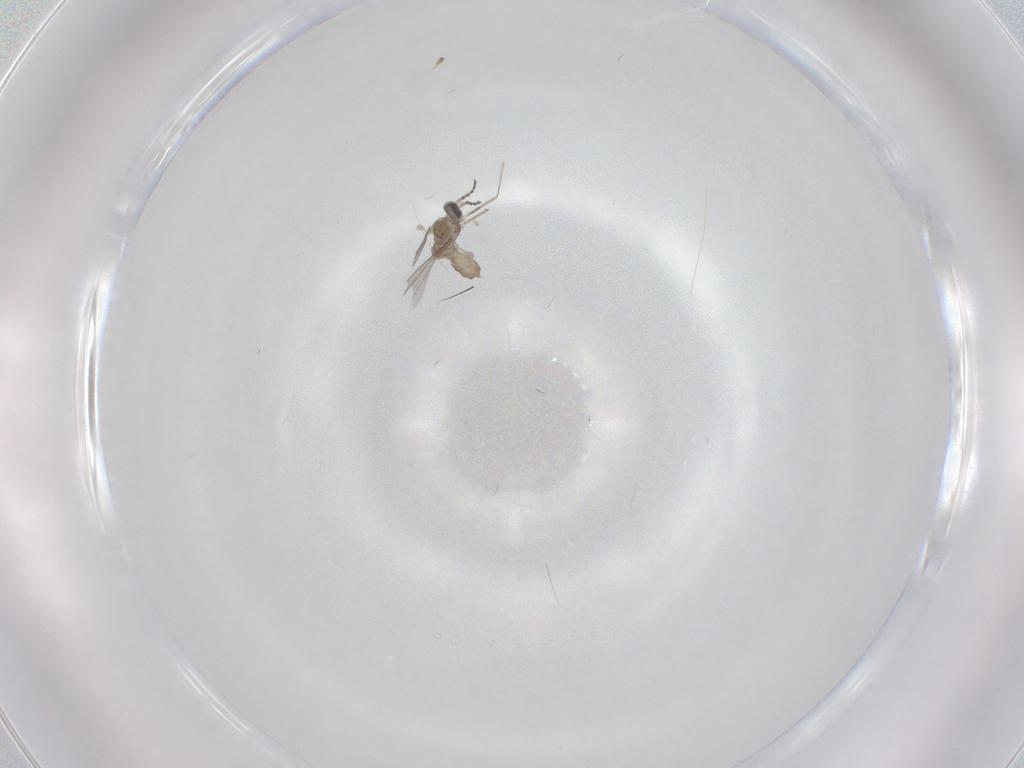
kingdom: Animalia
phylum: Arthropoda
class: Insecta
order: Diptera
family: Cecidomyiidae
